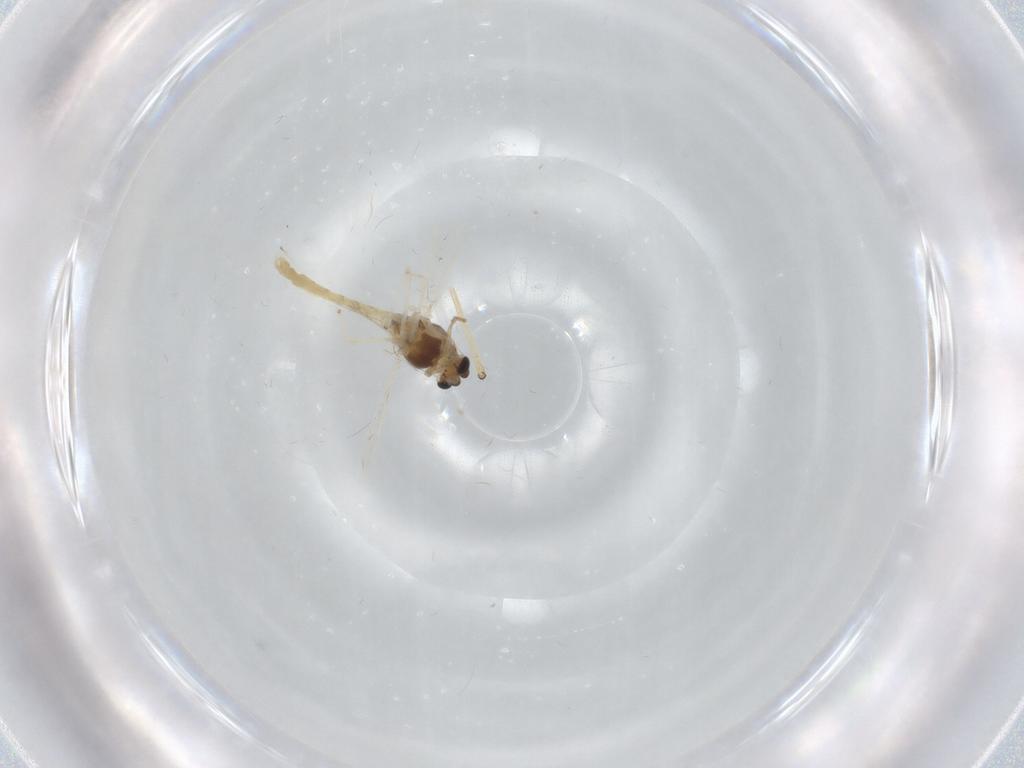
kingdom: Animalia
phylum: Arthropoda
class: Insecta
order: Diptera
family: Chironomidae
